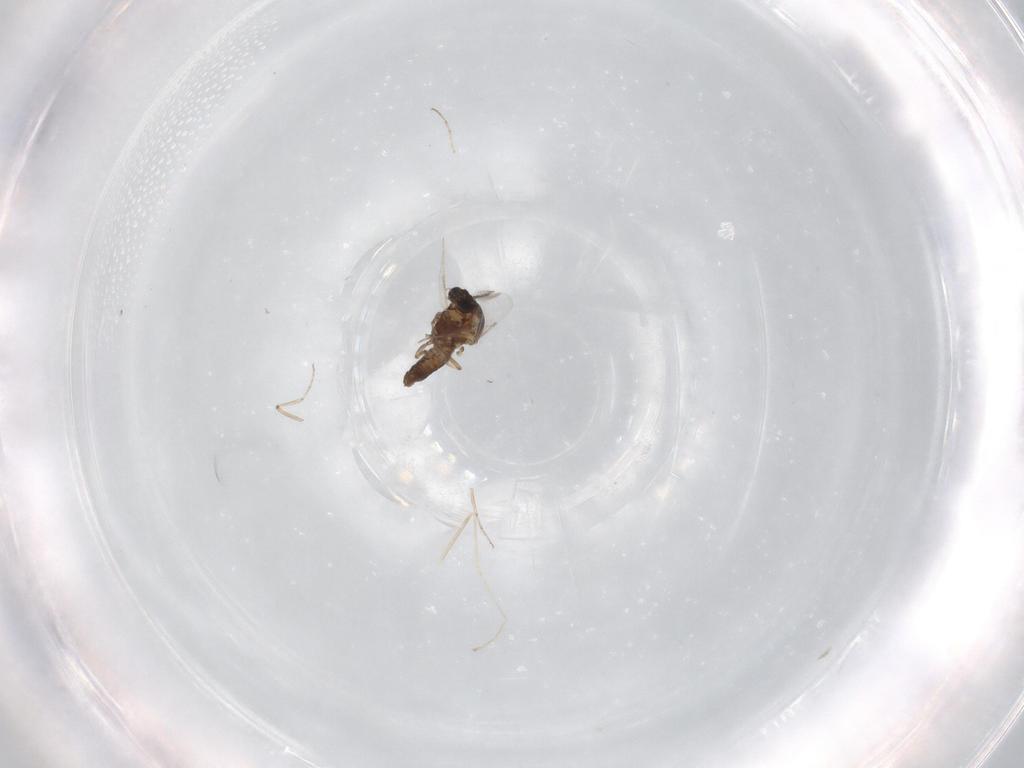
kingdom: Animalia
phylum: Arthropoda
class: Insecta
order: Diptera
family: Ceratopogonidae
